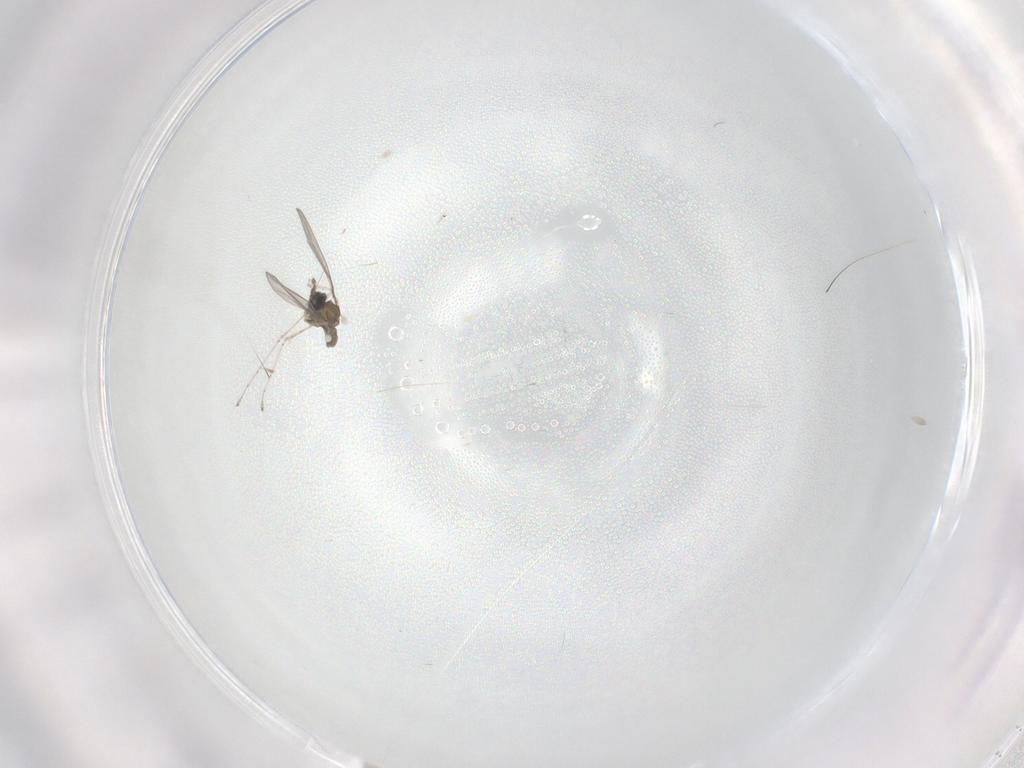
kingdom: Animalia
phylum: Arthropoda
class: Insecta
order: Diptera
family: Cecidomyiidae
